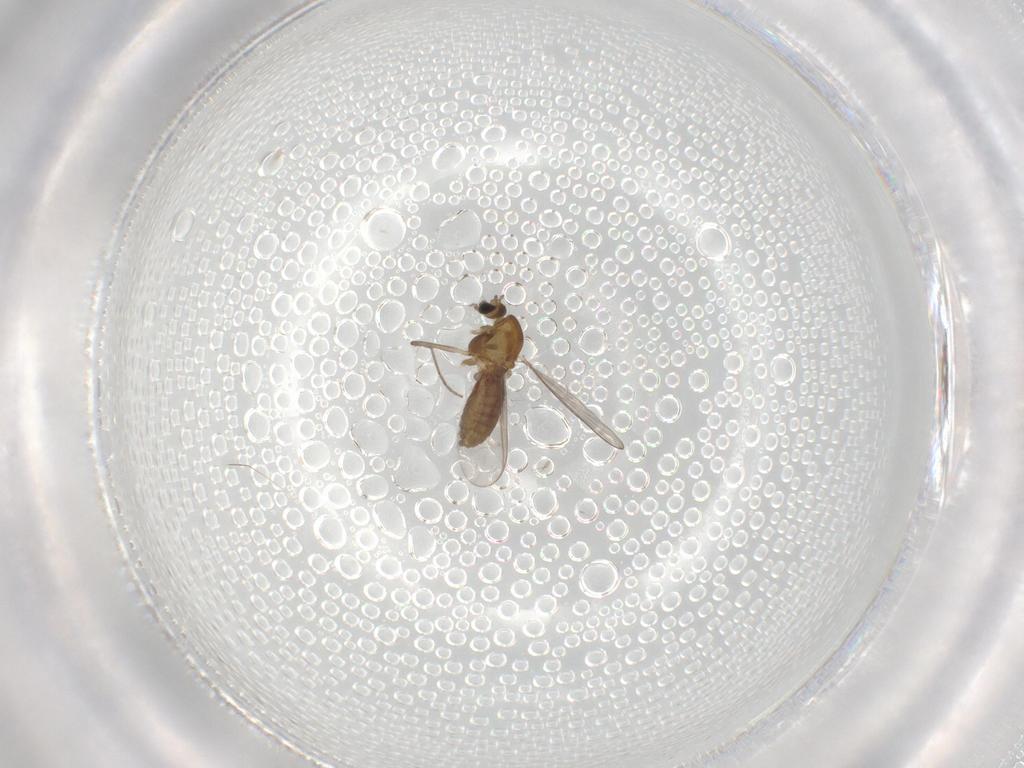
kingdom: Animalia
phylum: Arthropoda
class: Insecta
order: Diptera
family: Chironomidae
